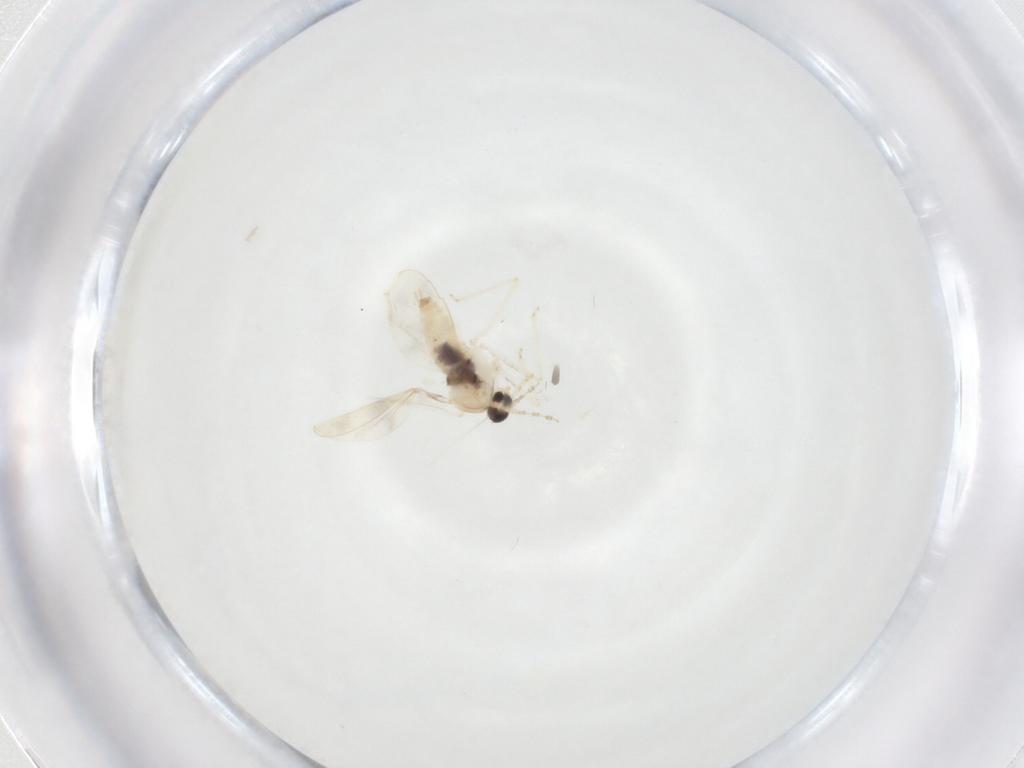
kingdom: Animalia
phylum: Arthropoda
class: Insecta
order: Diptera
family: Cecidomyiidae
